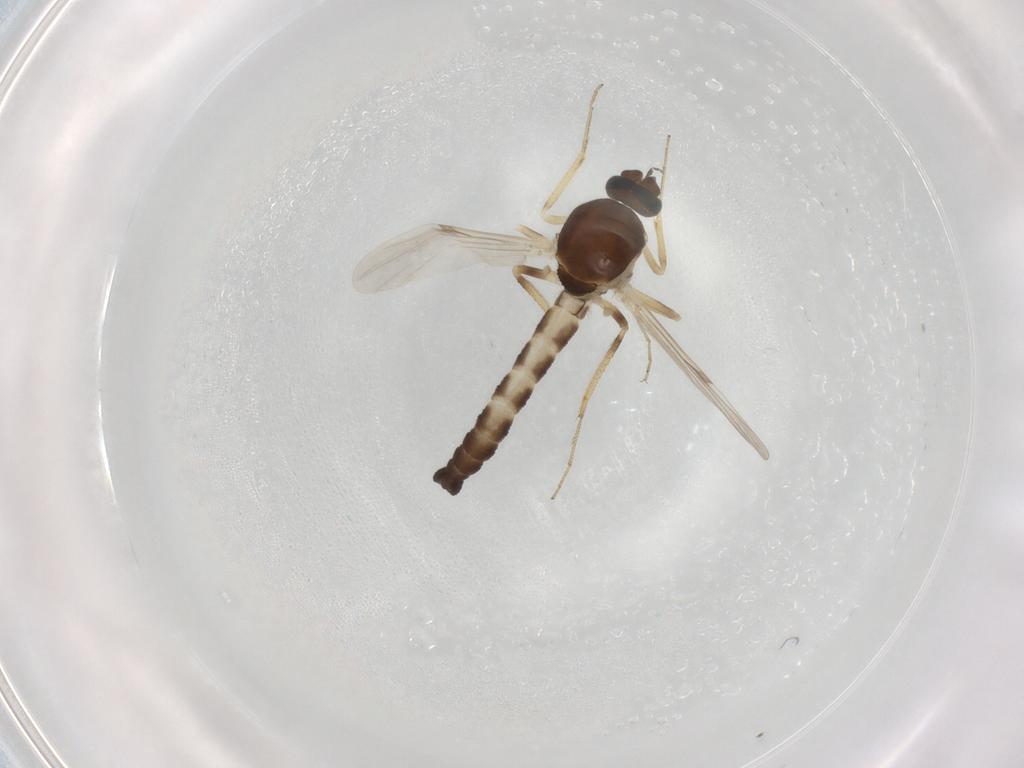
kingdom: Animalia
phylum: Arthropoda
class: Insecta
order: Diptera
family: Ceratopogonidae
